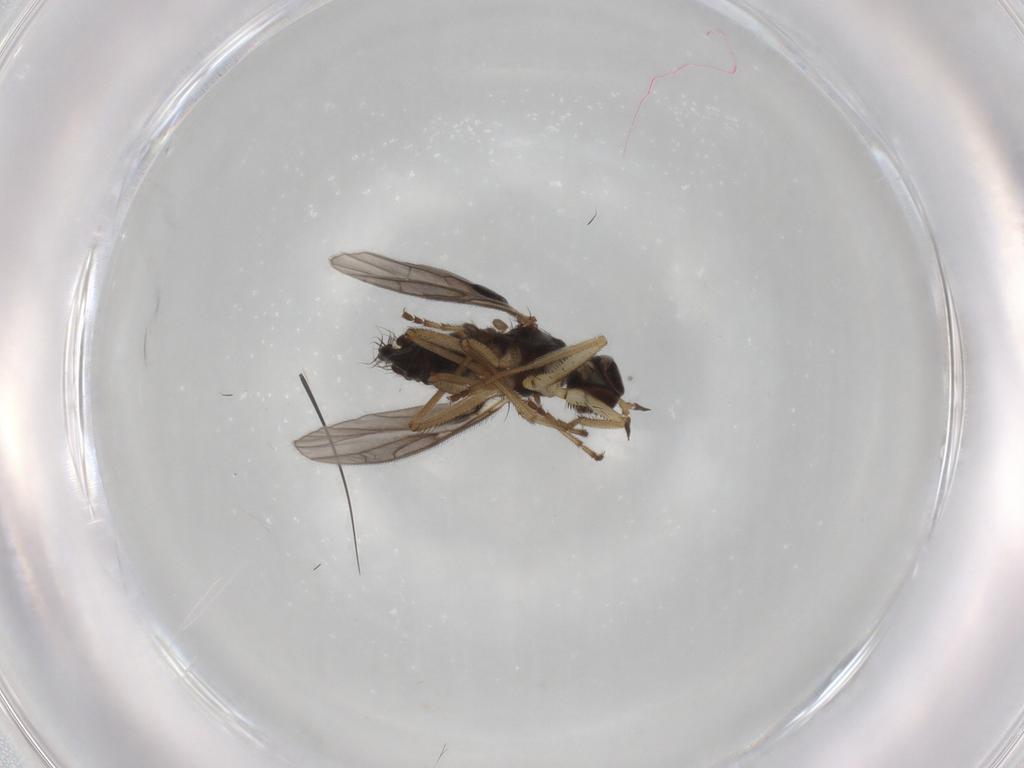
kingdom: Animalia
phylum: Arthropoda
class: Insecta
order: Diptera
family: Empididae
